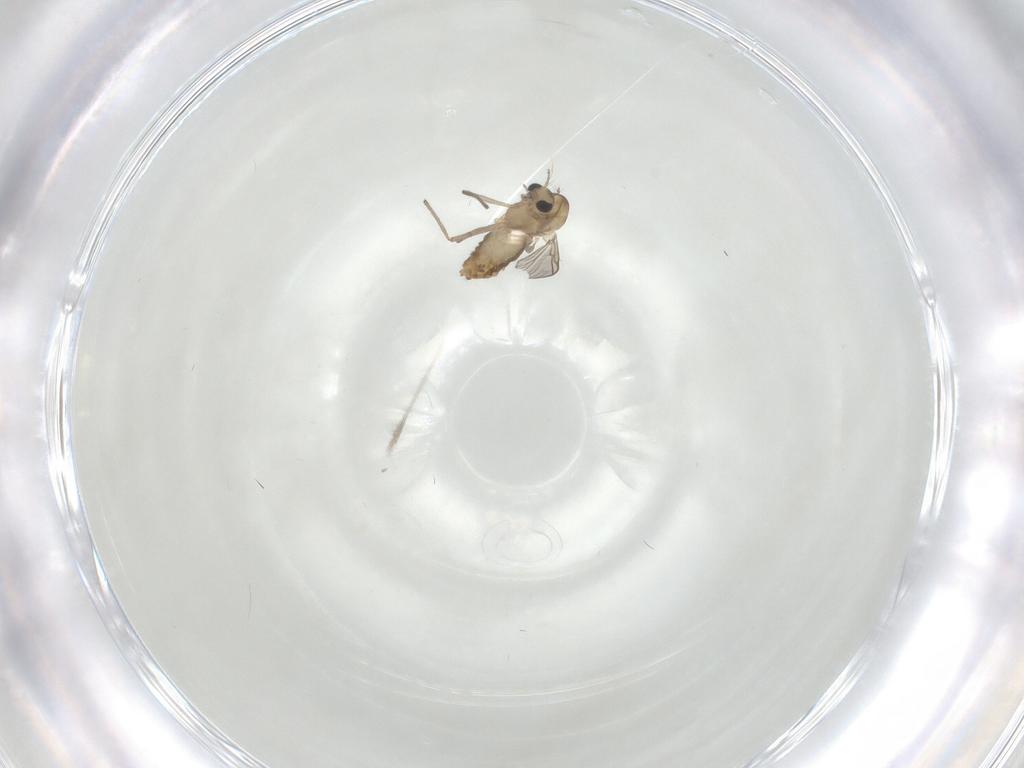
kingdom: Animalia
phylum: Arthropoda
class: Insecta
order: Diptera
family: Chironomidae
